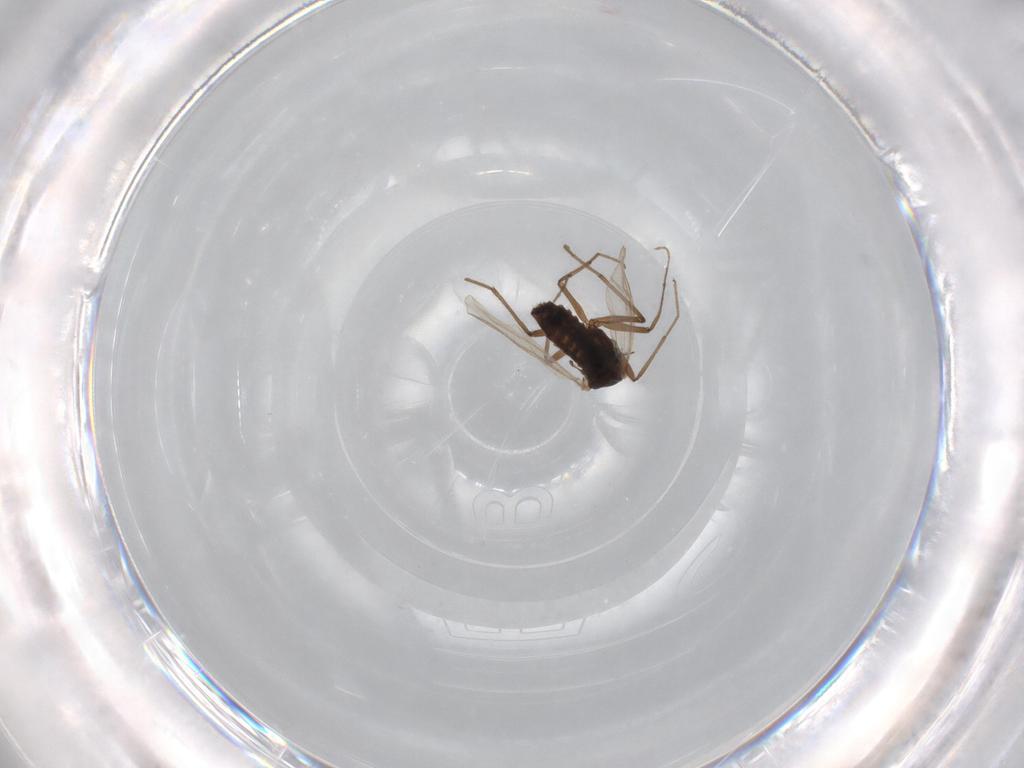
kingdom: Animalia
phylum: Arthropoda
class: Insecta
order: Diptera
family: Chironomidae
